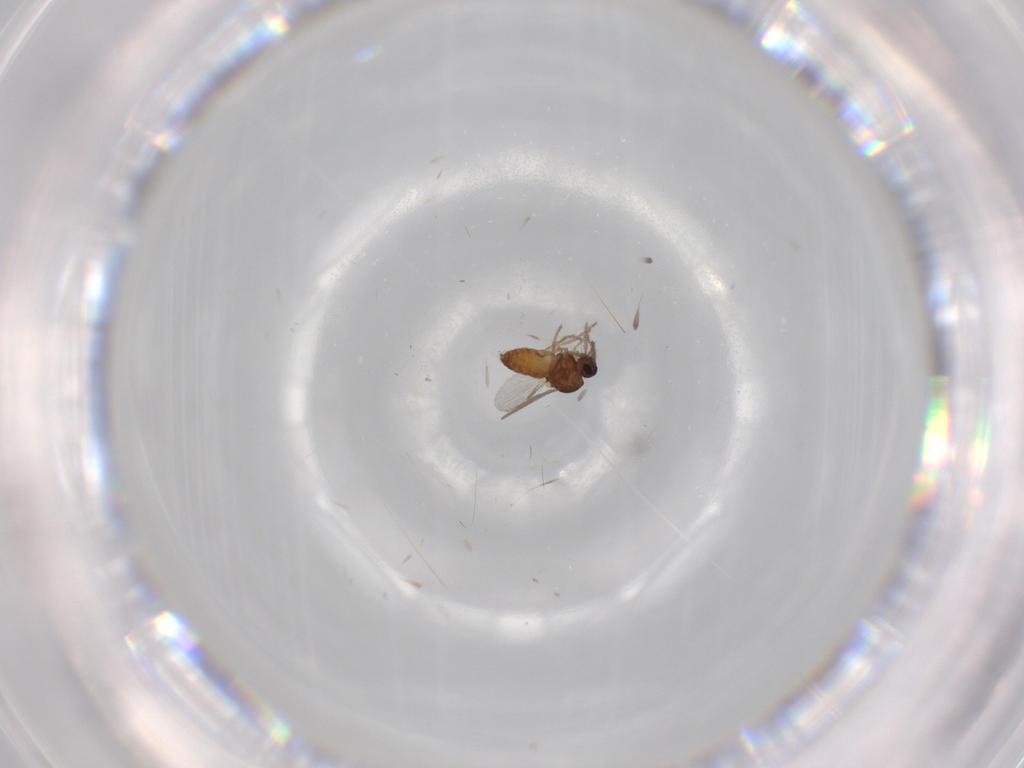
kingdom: Animalia
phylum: Arthropoda
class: Insecta
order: Diptera
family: Ceratopogonidae
